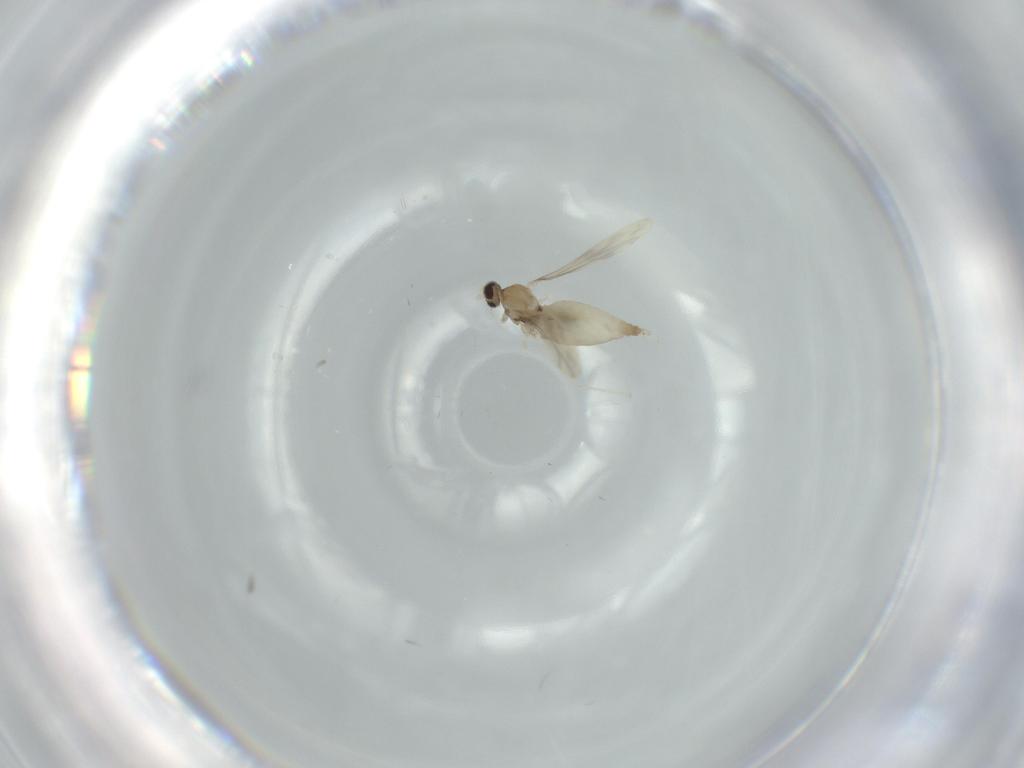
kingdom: Animalia
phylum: Arthropoda
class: Insecta
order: Diptera
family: Cecidomyiidae
